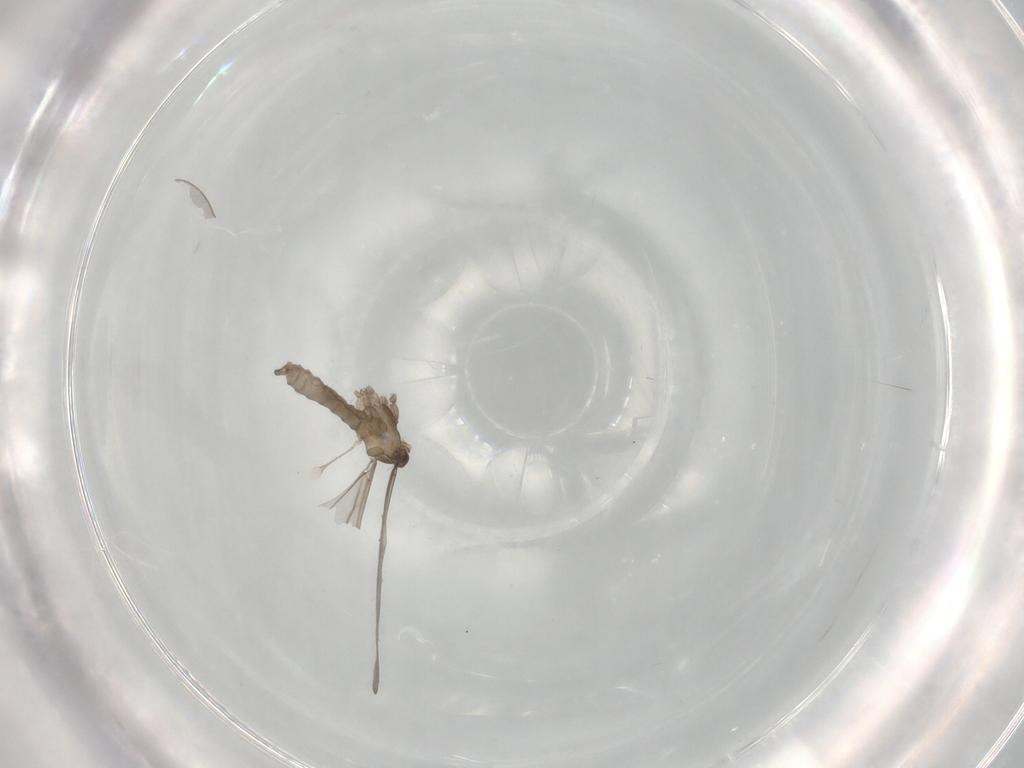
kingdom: Animalia
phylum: Arthropoda
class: Insecta
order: Diptera
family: Cecidomyiidae
